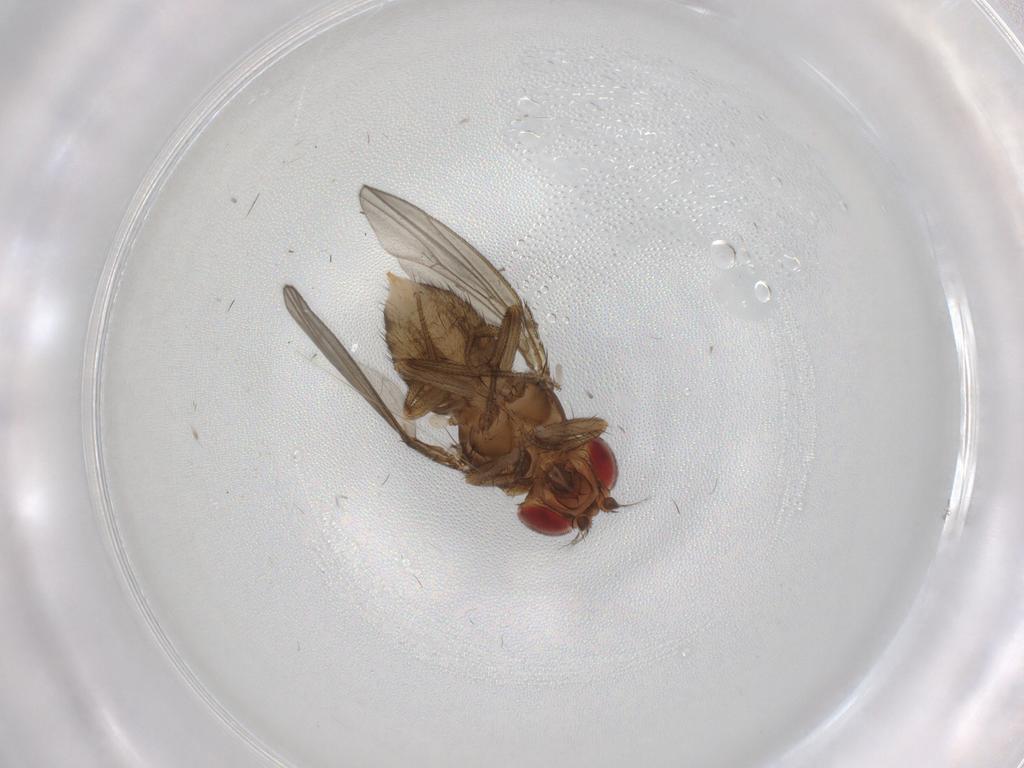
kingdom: Animalia
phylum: Arthropoda
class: Insecta
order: Diptera
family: Drosophilidae
